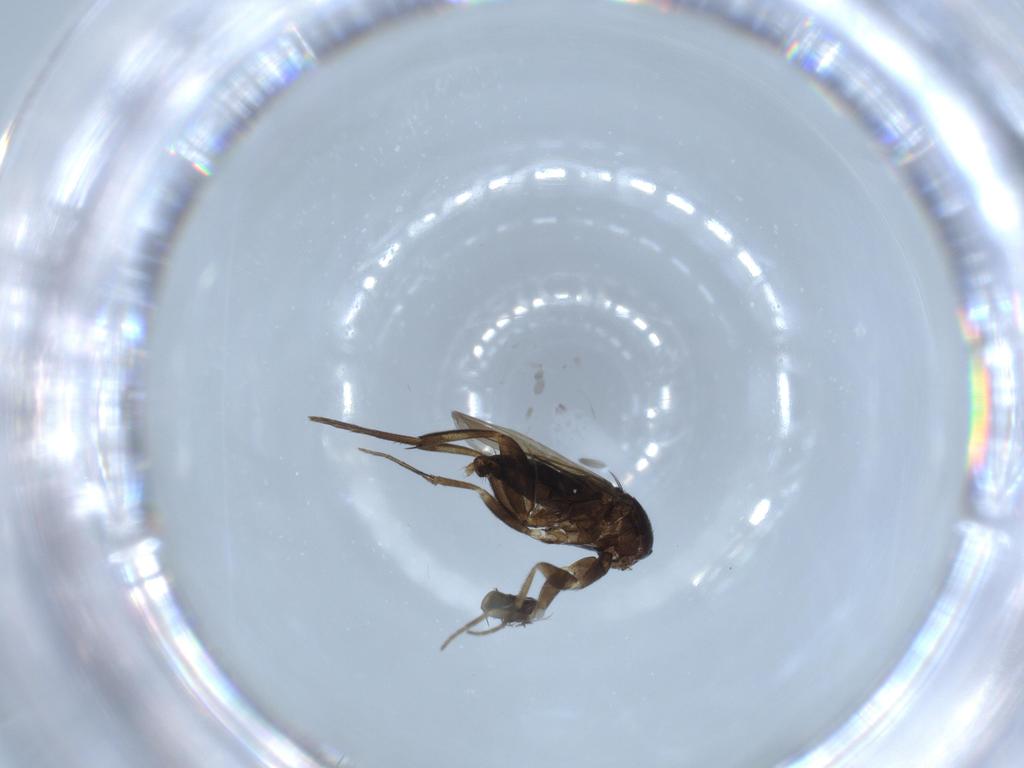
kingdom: Animalia
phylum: Arthropoda
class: Insecta
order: Diptera
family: Chironomidae
